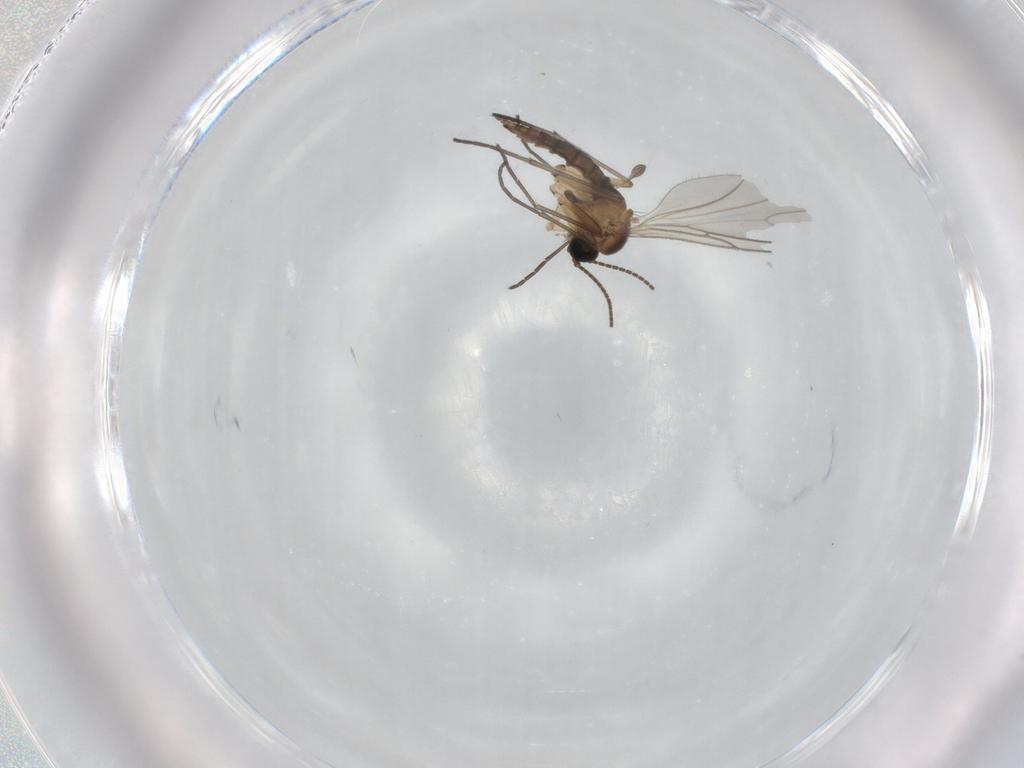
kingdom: Animalia
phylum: Arthropoda
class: Insecta
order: Diptera
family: Sciaridae
